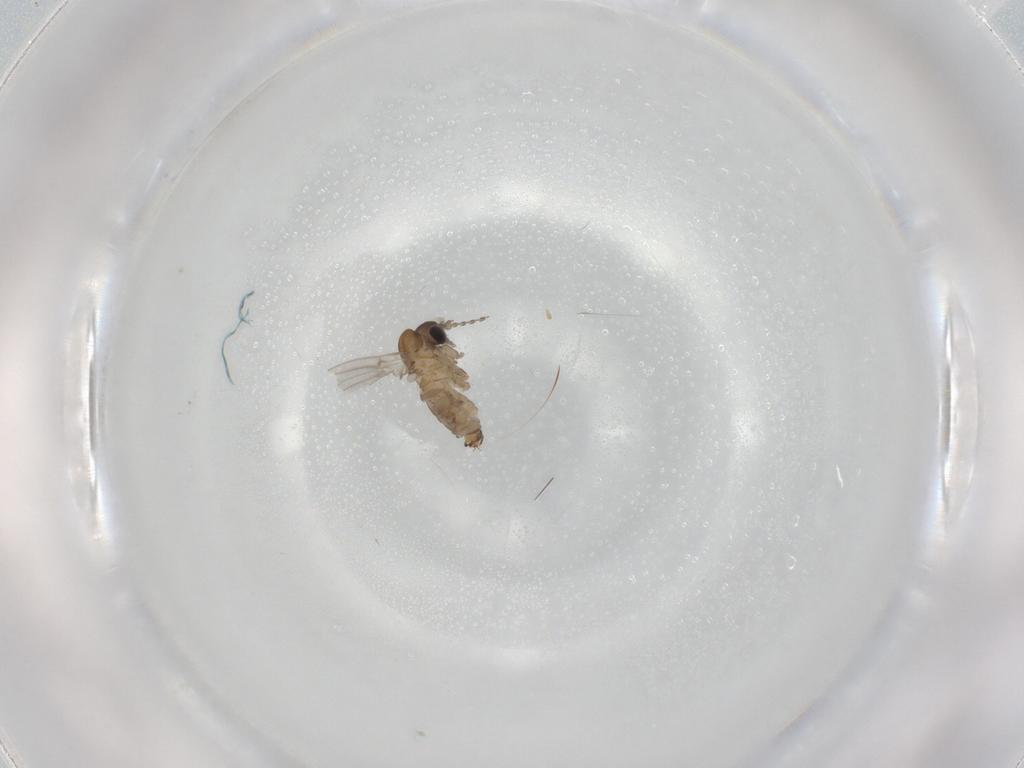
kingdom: Animalia
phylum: Arthropoda
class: Insecta
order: Diptera
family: Psychodidae
